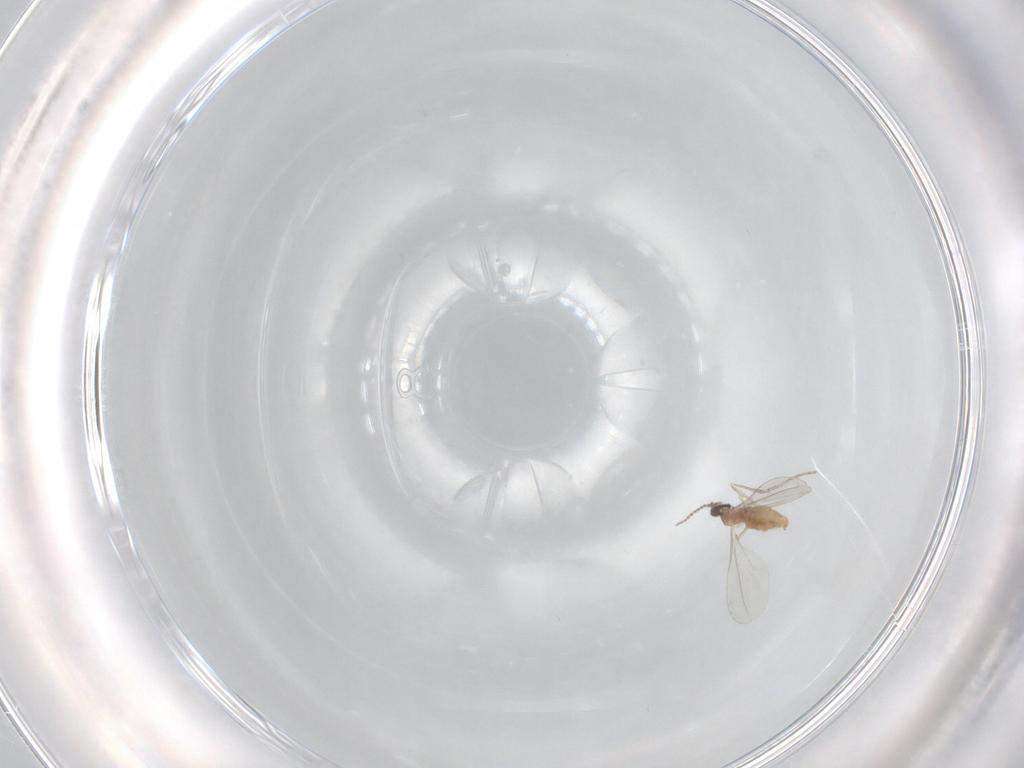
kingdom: Animalia
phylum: Arthropoda
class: Insecta
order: Diptera
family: Cecidomyiidae
